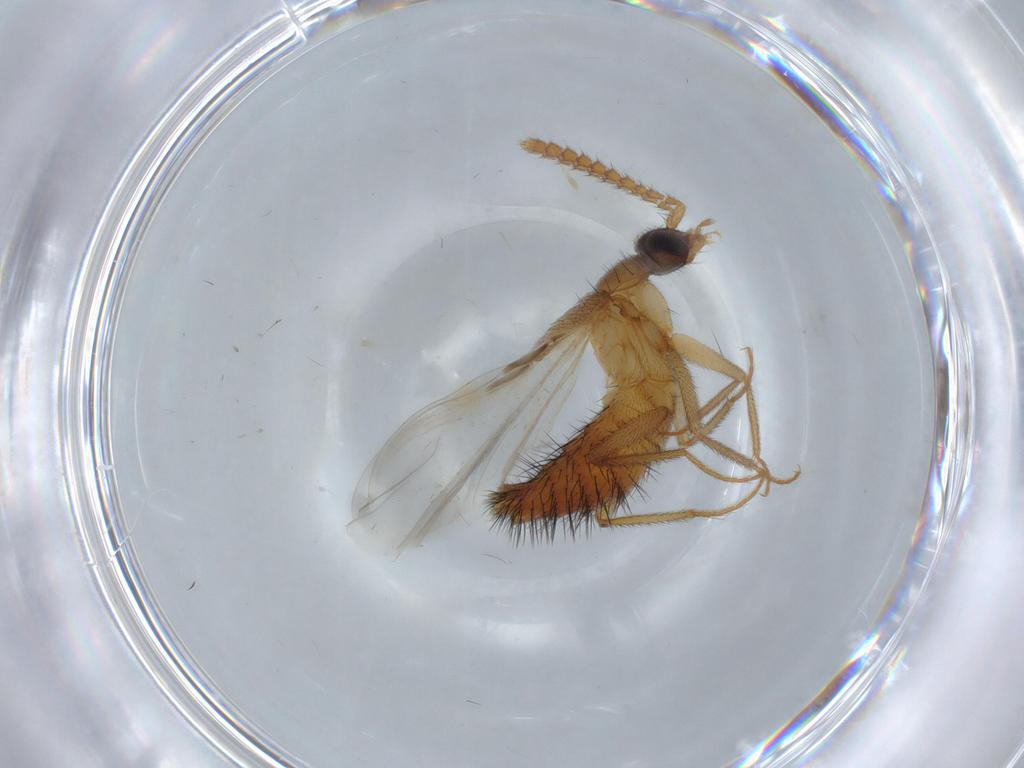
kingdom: Animalia
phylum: Arthropoda
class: Insecta
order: Coleoptera
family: Staphylinidae
